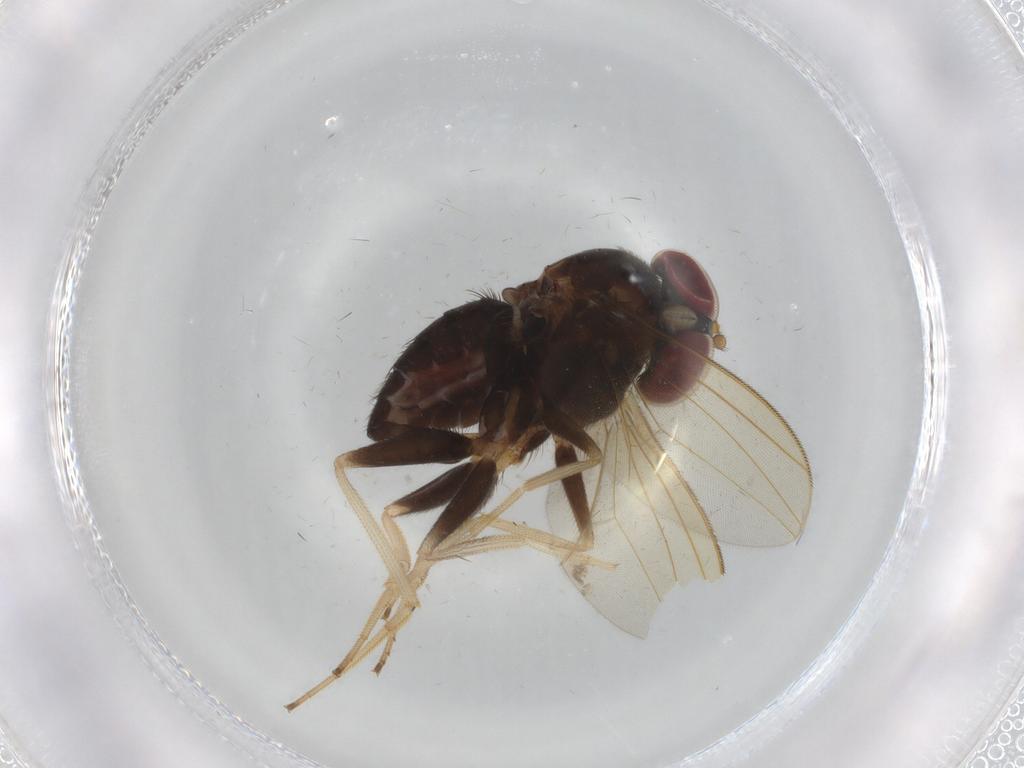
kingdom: Animalia
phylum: Arthropoda
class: Insecta
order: Diptera
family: Dolichopodidae
